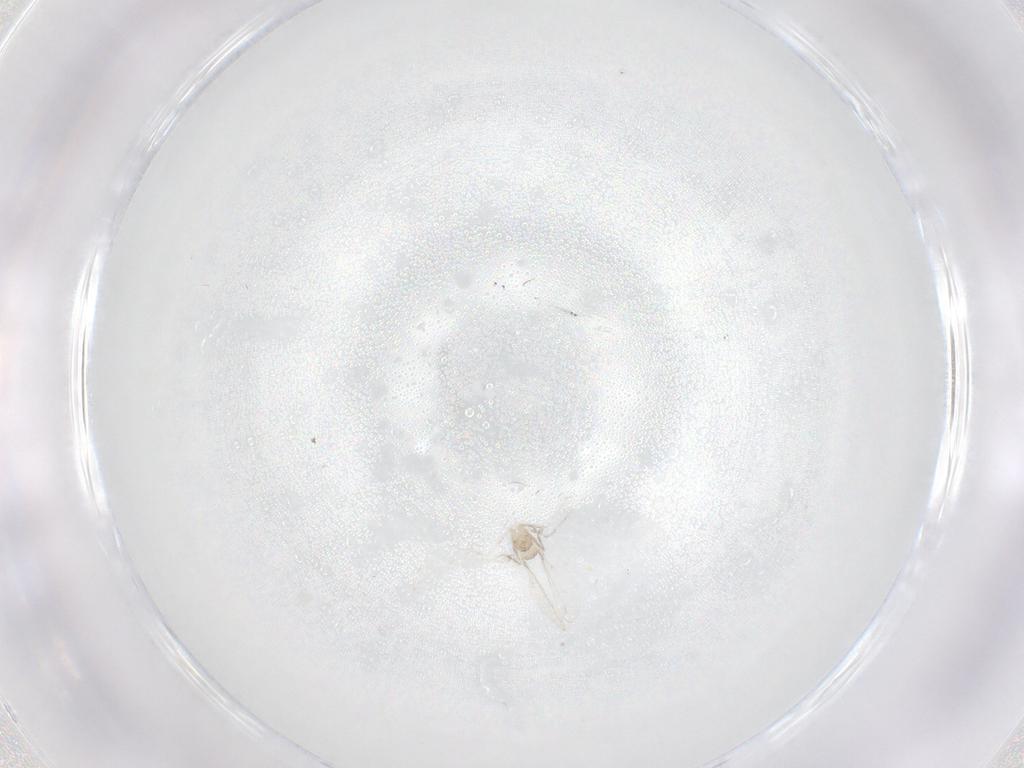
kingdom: Animalia
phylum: Arthropoda
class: Insecta
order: Diptera
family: Cecidomyiidae
